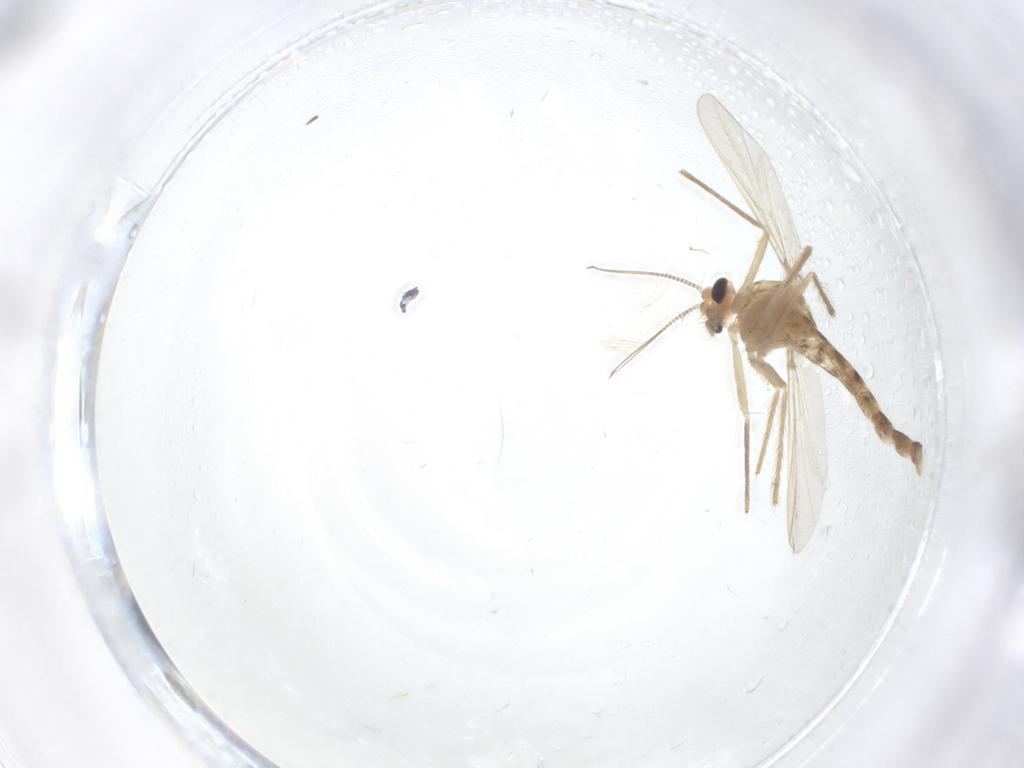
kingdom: Animalia
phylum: Arthropoda
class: Insecta
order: Diptera
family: Chironomidae
